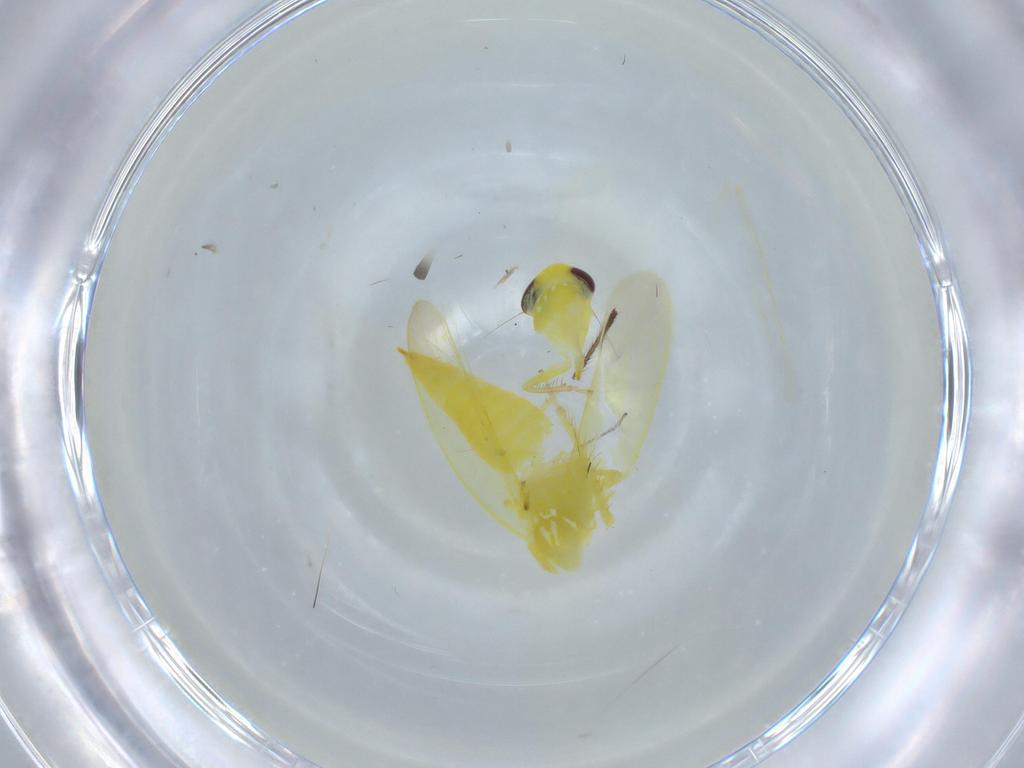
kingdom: Animalia
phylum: Arthropoda
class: Insecta
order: Hemiptera
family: Cicadellidae
